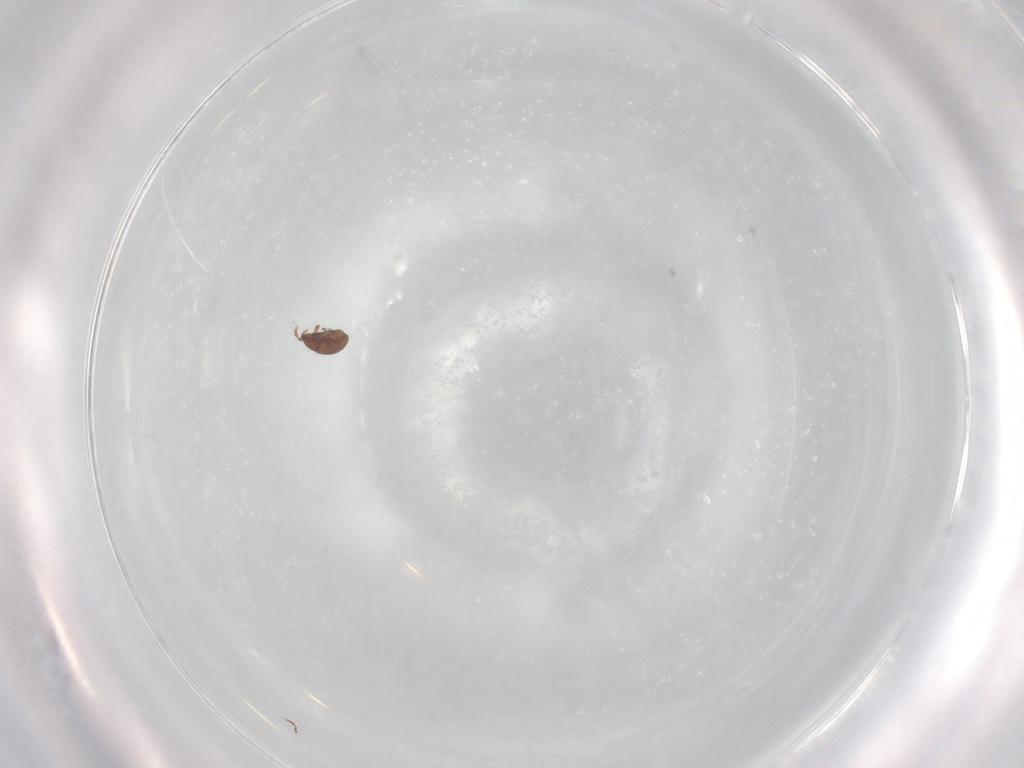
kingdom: Animalia
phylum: Arthropoda
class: Arachnida
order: Sarcoptiformes
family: Ceratoppiidae
